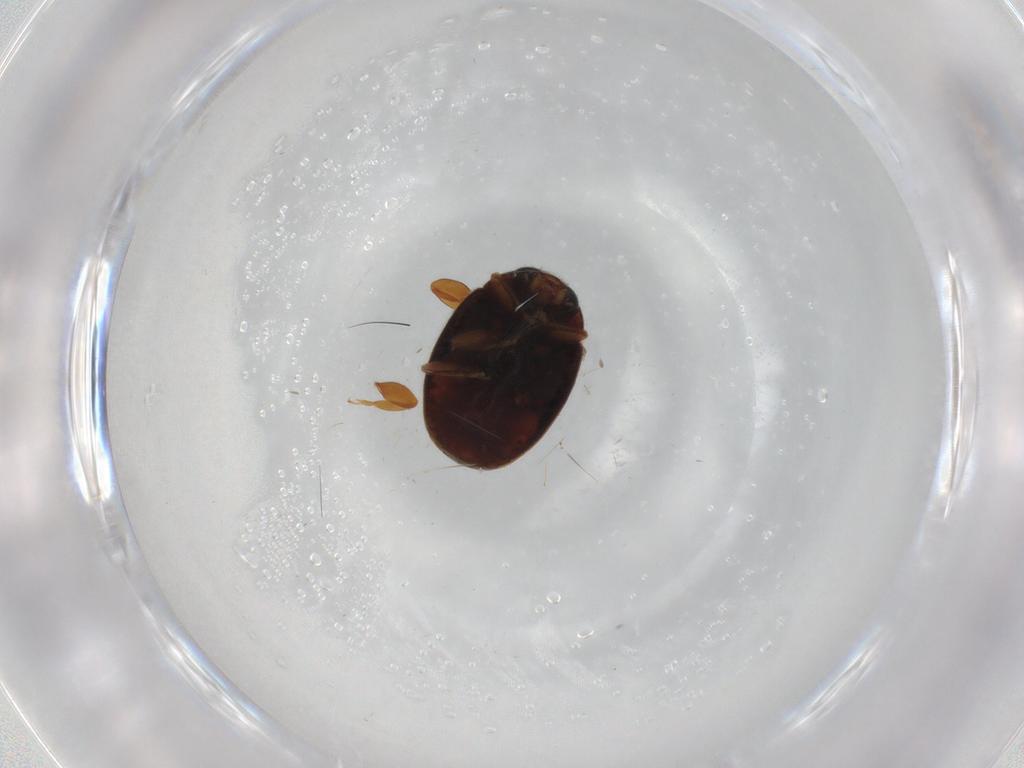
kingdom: Animalia
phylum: Arthropoda
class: Insecta
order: Coleoptera
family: Coccinellidae
